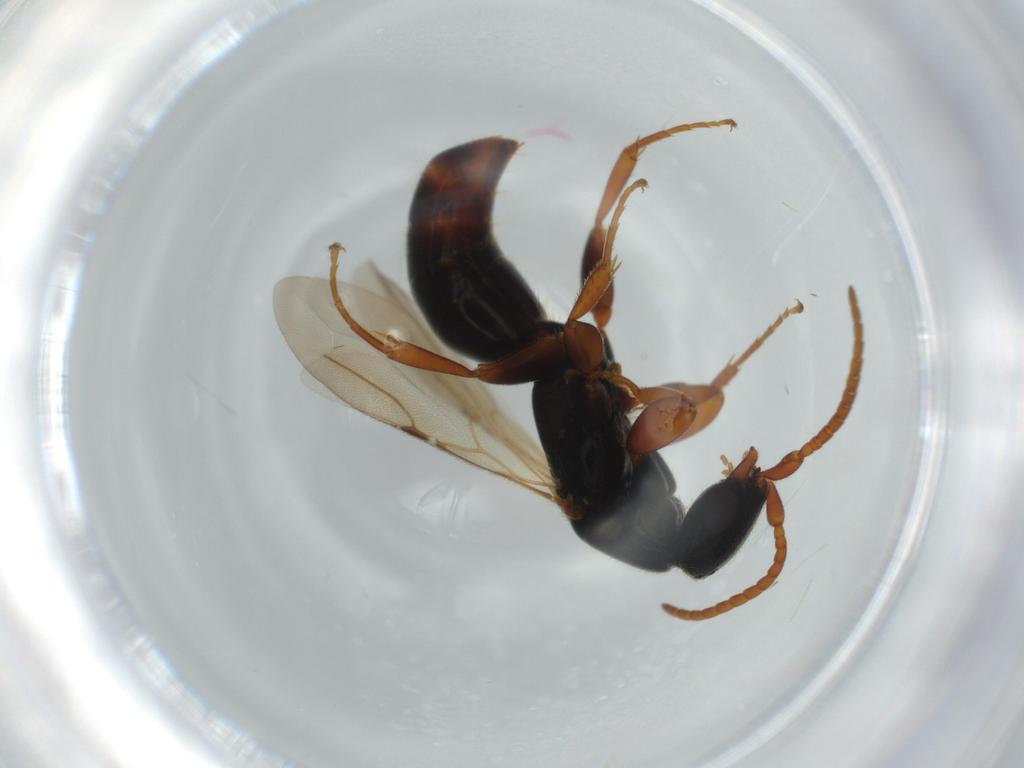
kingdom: Animalia
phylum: Arthropoda
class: Insecta
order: Hymenoptera
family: Bethylidae
